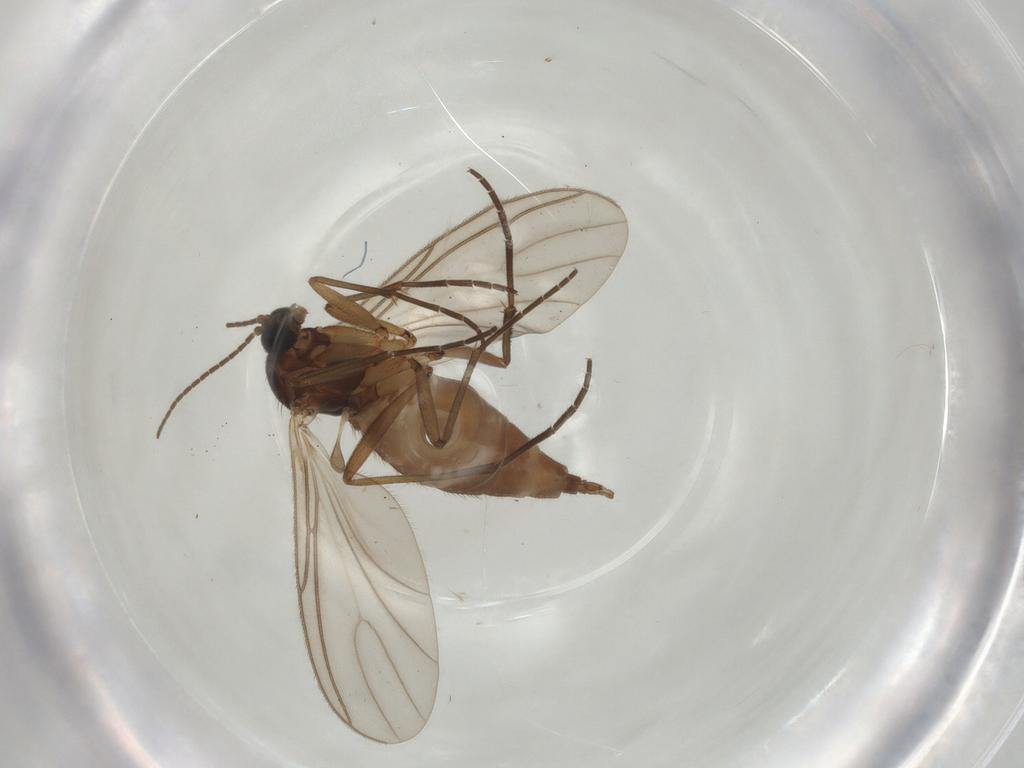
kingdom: Animalia
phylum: Arthropoda
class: Insecta
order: Diptera
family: Sciaridae
